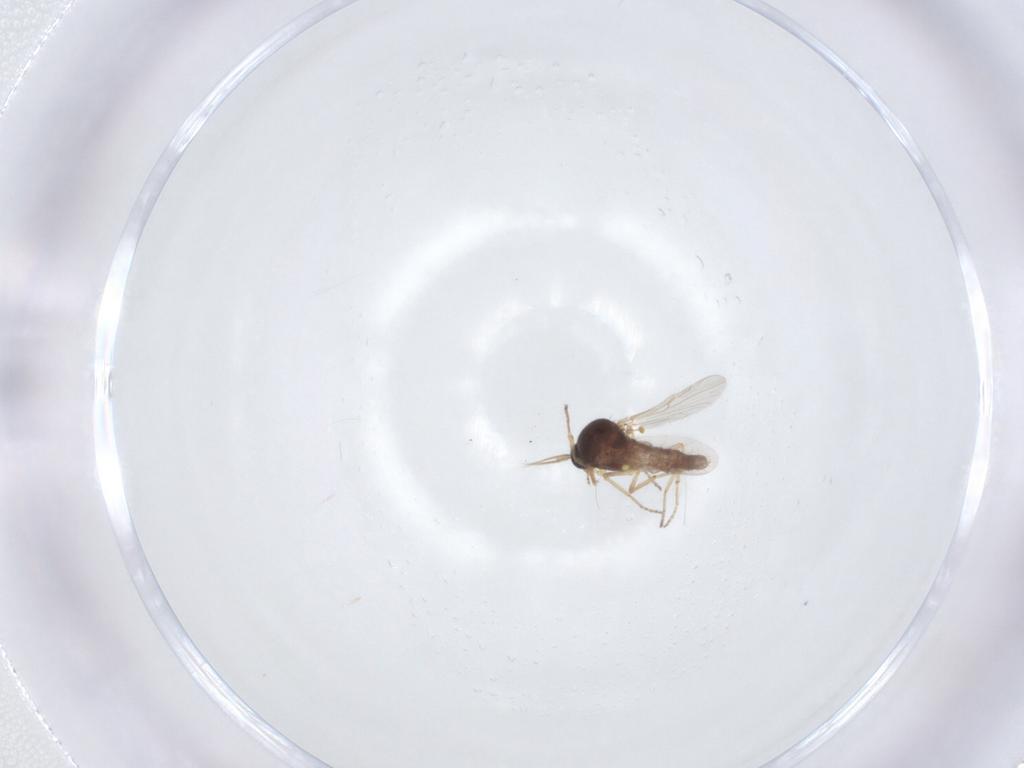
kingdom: Animalia
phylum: Arthropoda
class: Insecta
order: Diptera
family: Ceratopogonidae
